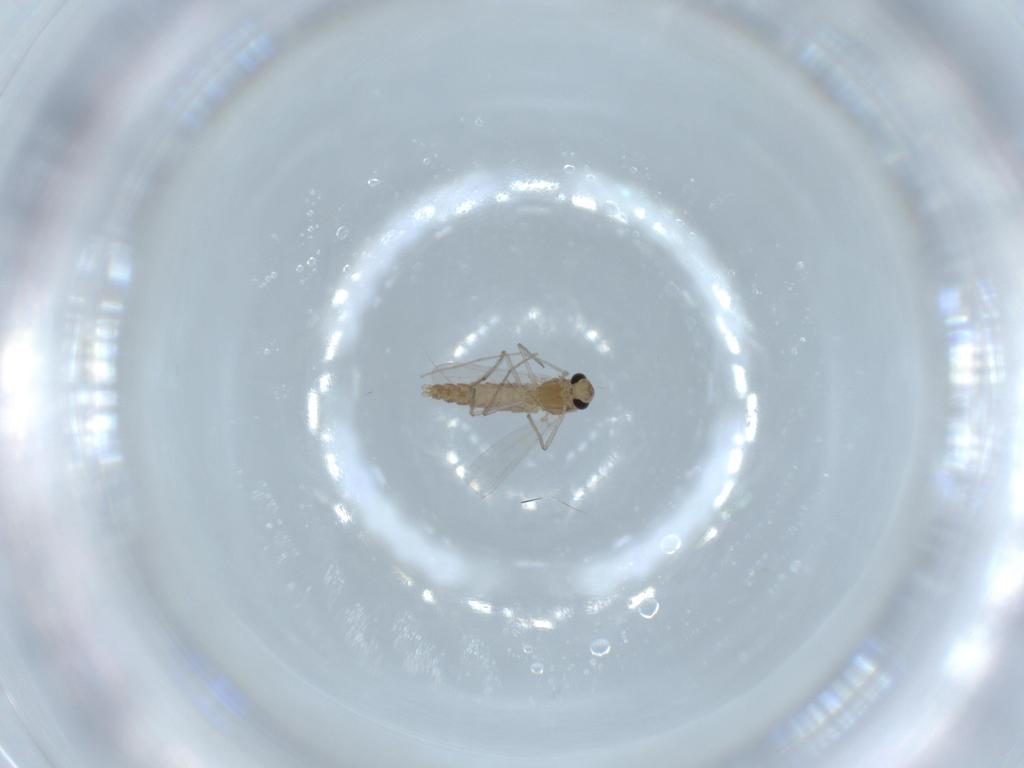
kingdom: Animalia
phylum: Arthropoda
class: Insecta
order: Diptera
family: Chironomidae
